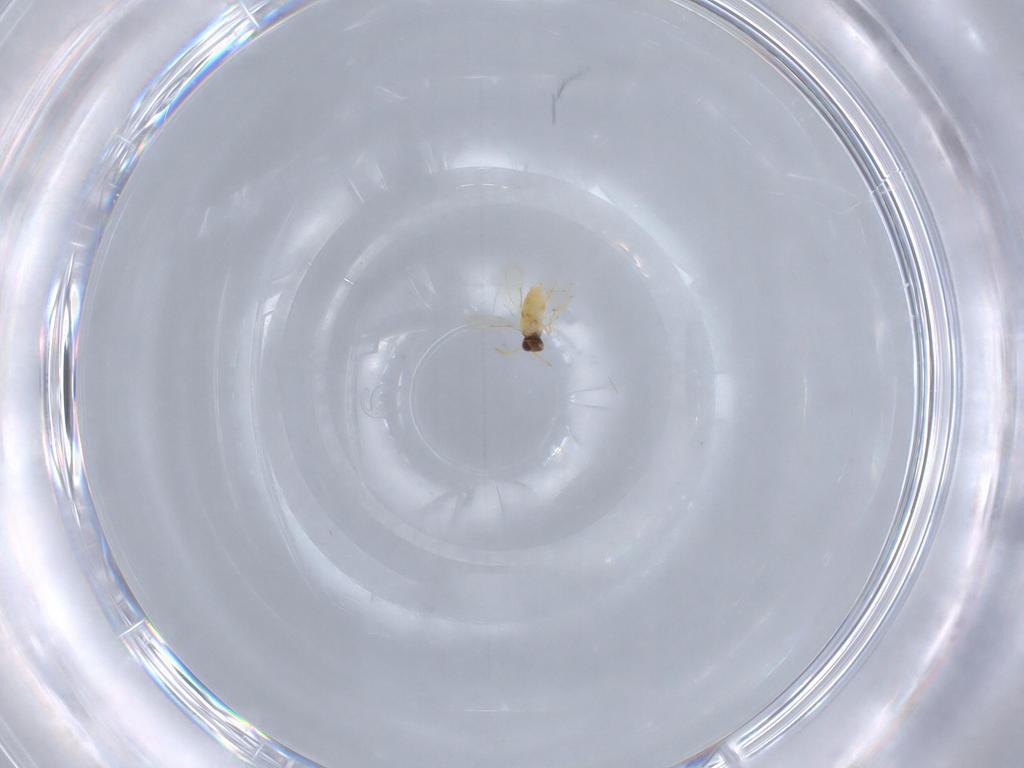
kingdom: Animalia
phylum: Arthropoda
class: Insecta
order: Hymenoptera
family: Aphelinidae
